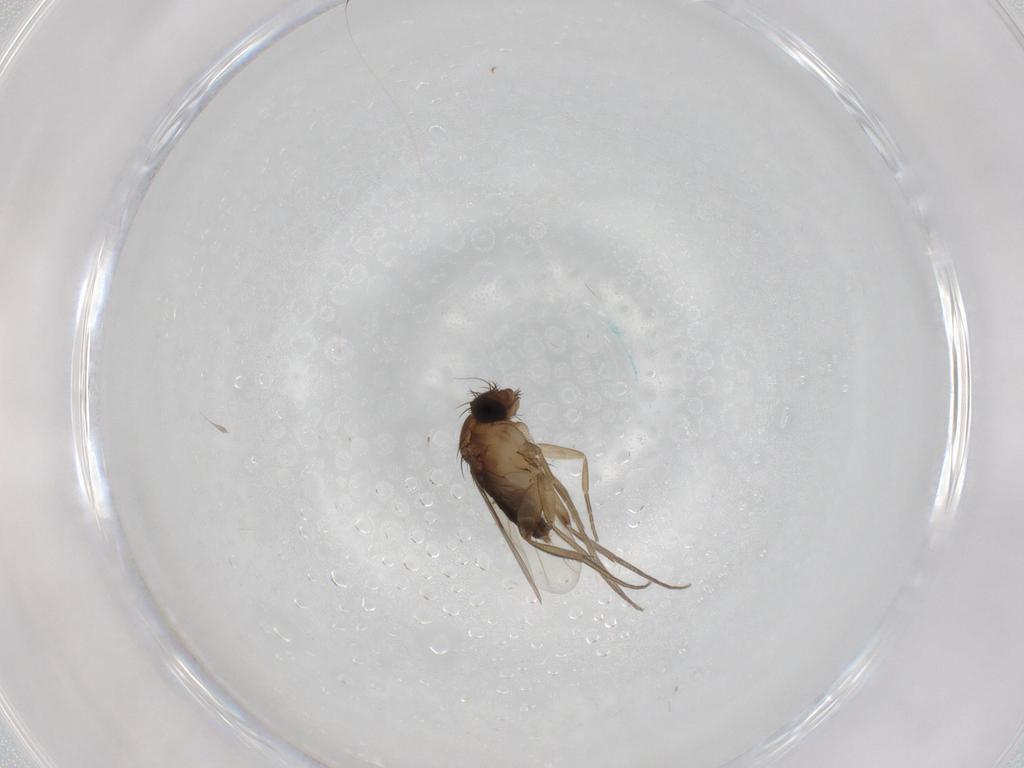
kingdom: Animalia
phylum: Arthropoda
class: Insecta
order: Diptera
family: Phoridae
